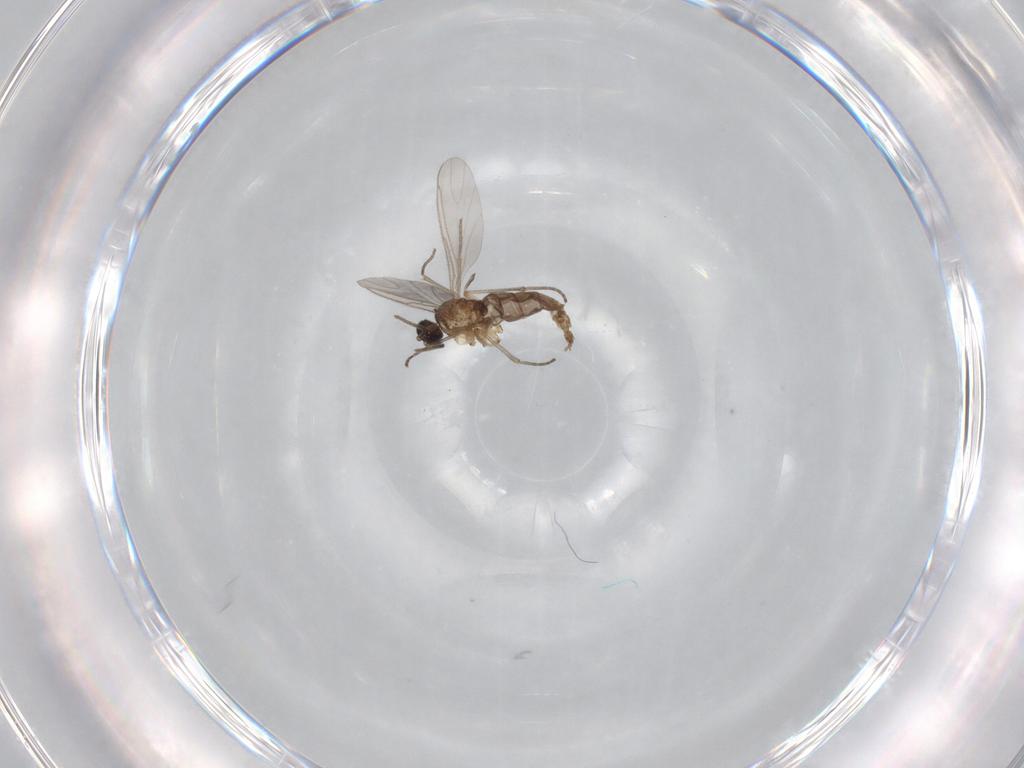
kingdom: Animalia
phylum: Arthropoda
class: Insecta
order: Diptera
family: Sciaridae
